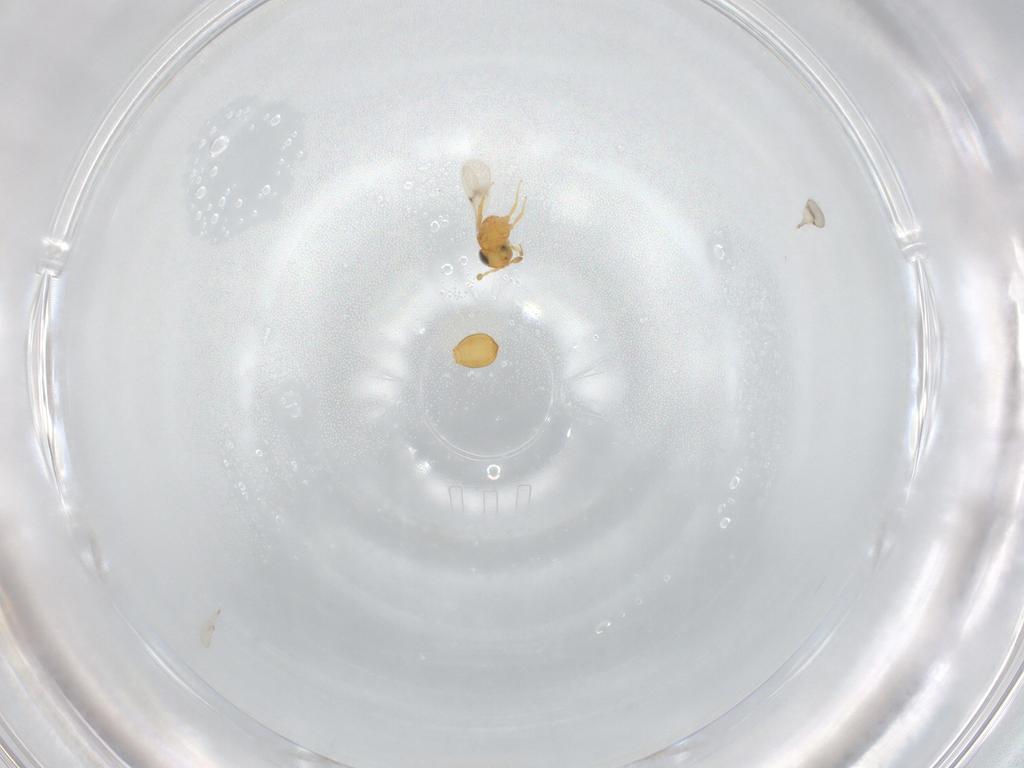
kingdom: Animalia
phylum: Arthropoda
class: Insecta
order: Hymenoptera
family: Scelionidae
